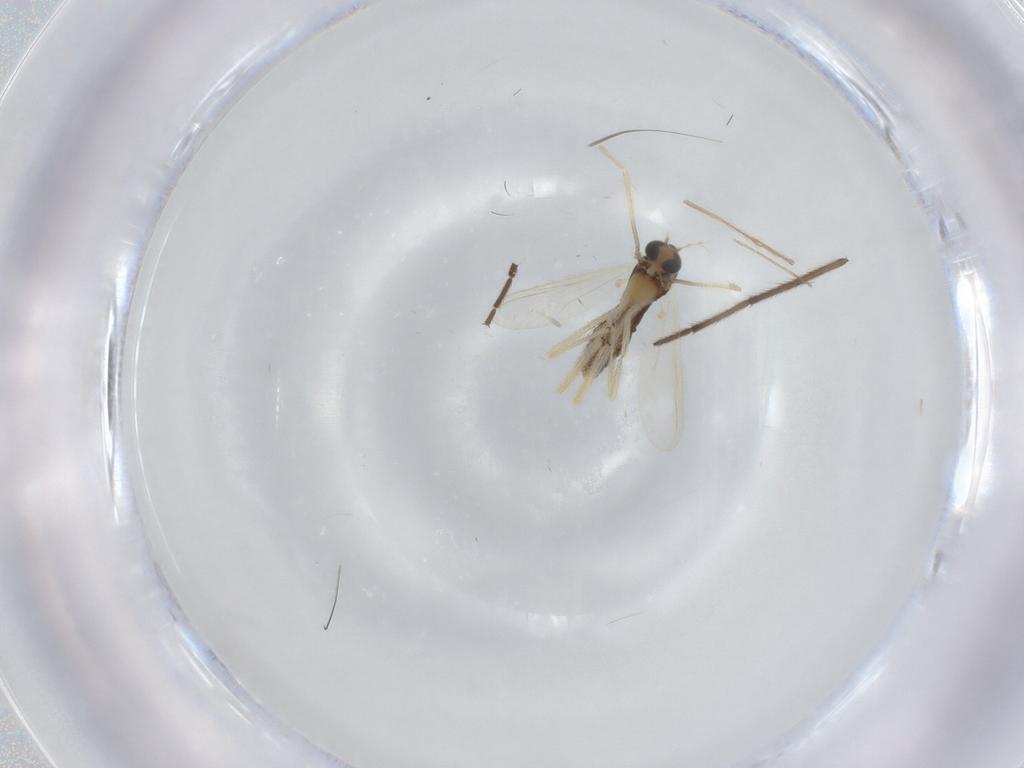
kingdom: Animalia
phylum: Arthropoda
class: Insecta
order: Diptera
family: Chironomidae
